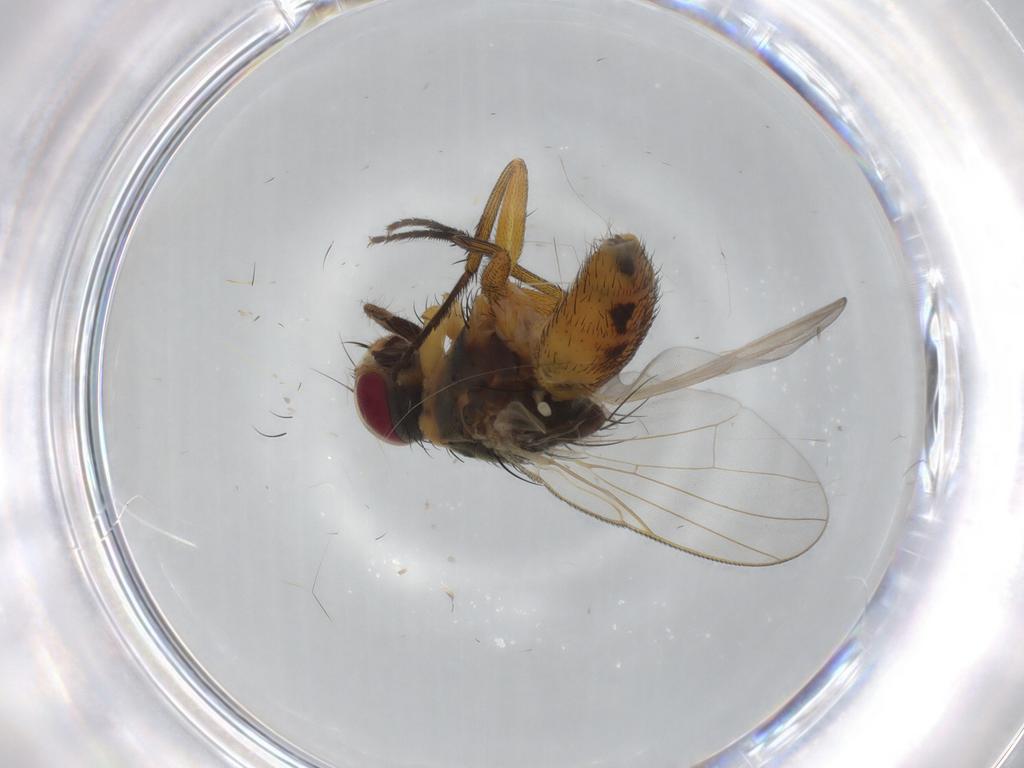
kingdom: Animalia
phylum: Arthropoda
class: Insecta
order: Diptera
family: Muscidae
